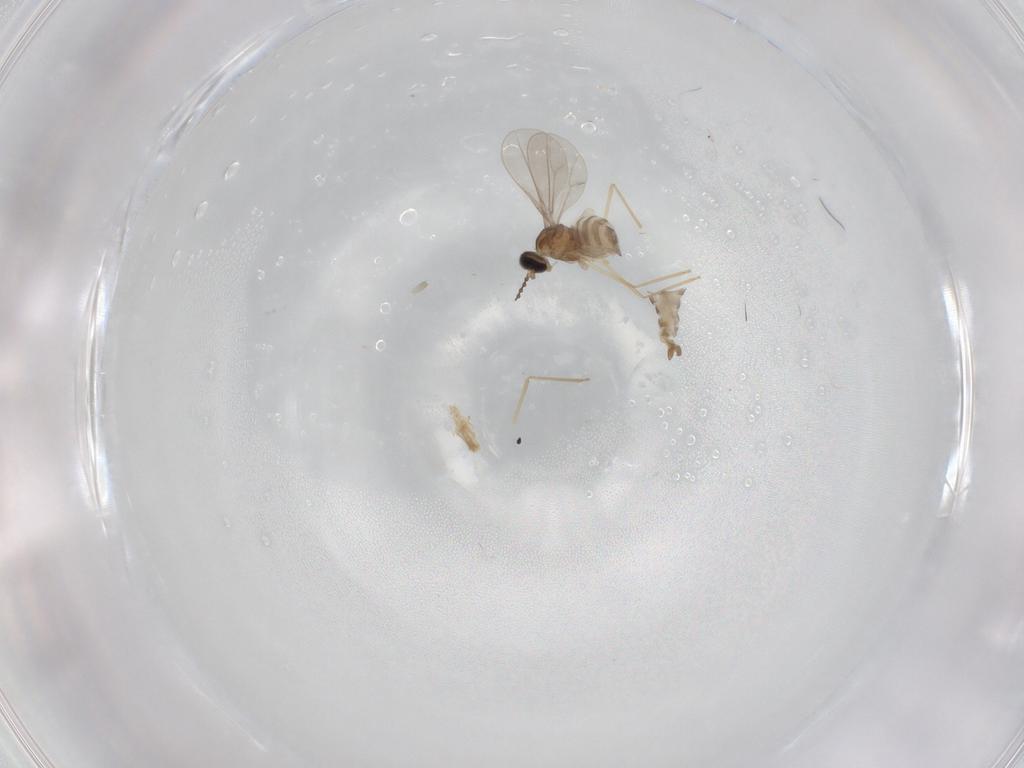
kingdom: Animalia
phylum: Arthropoda
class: Insecta
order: Diptera
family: Cecidomyiidae
